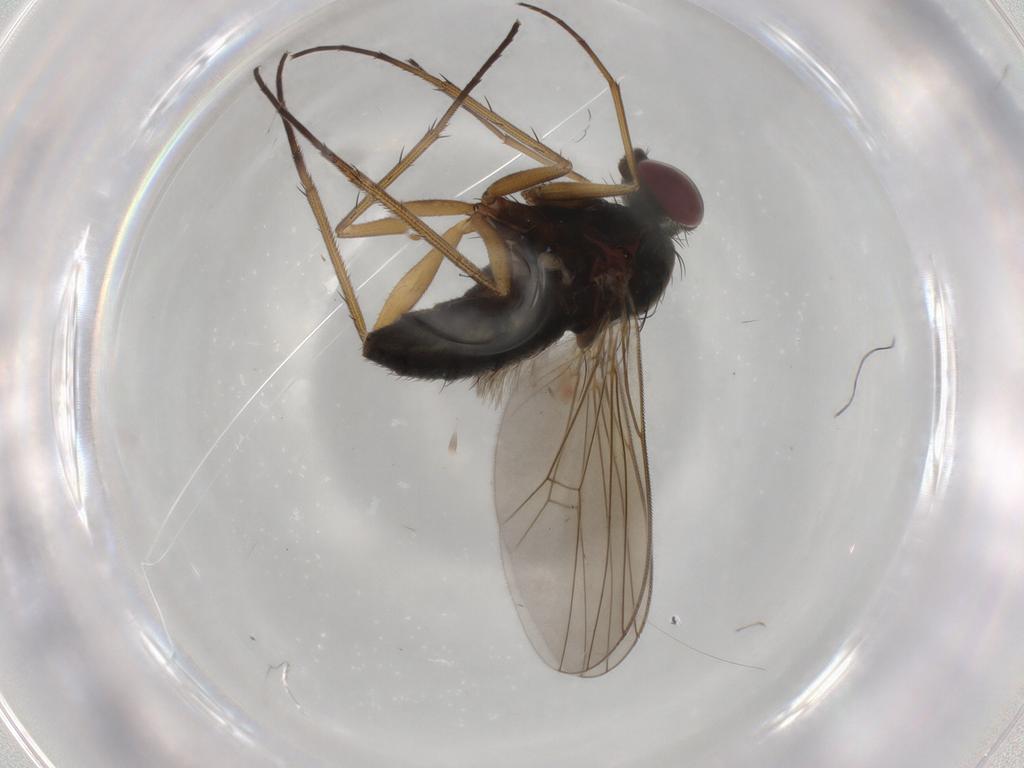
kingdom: Animalia
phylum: Arthropoda
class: Insecta
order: Diptera
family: Dolichopodidae
